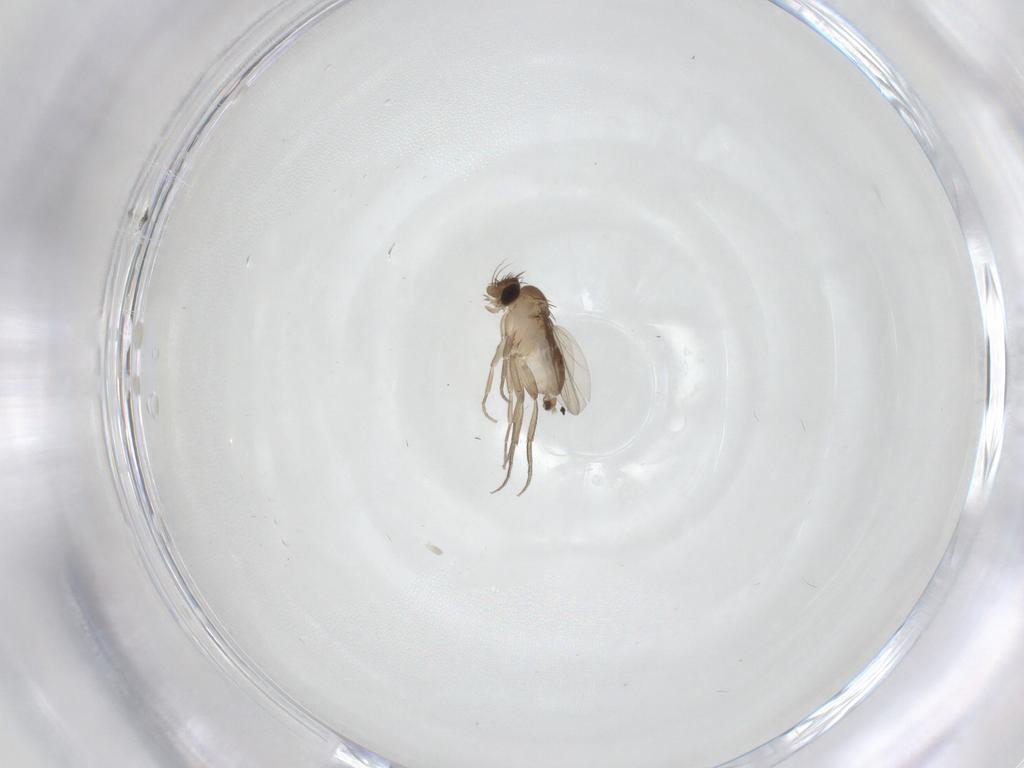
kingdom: Animalia
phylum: Arthropoda
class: Insecta
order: Diptera
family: Phoridae
